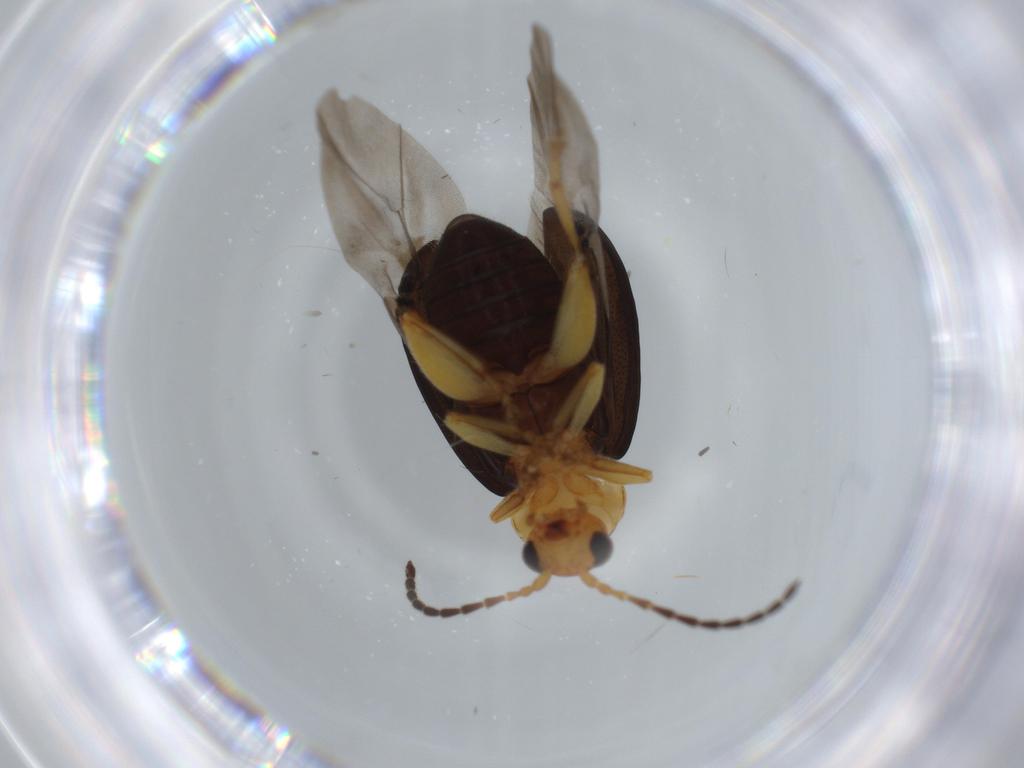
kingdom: Animalia
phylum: Arthropoda
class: Insecta
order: Coleoptera
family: Chrysomelidae
